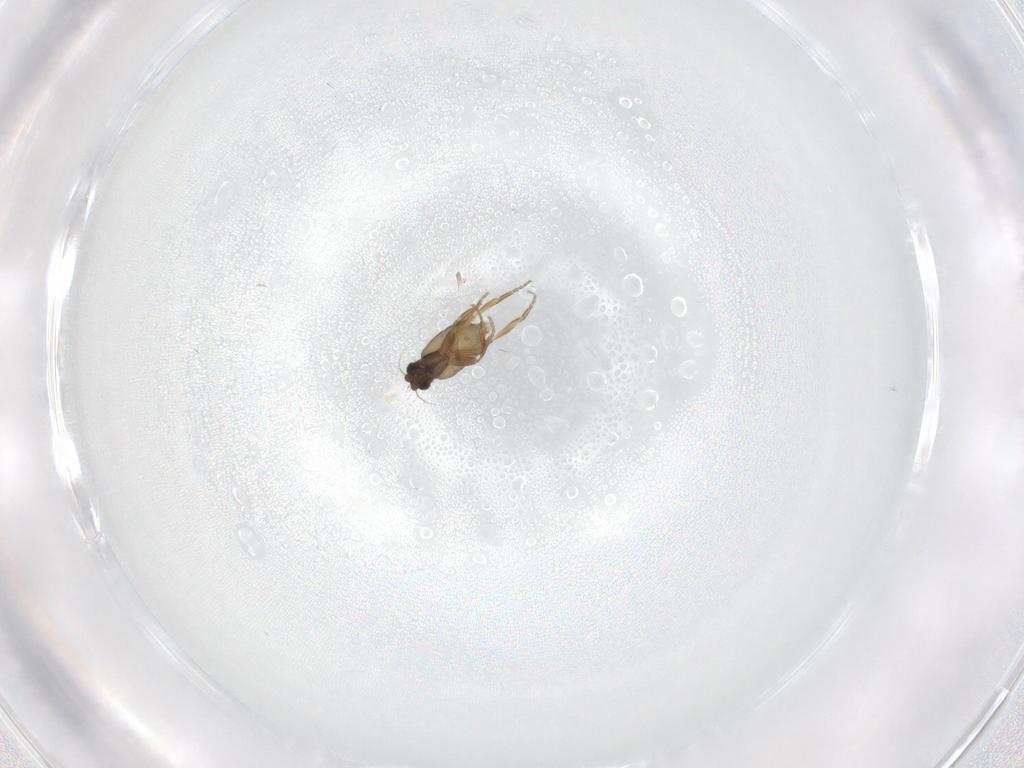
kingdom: Animalia
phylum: Arthropoda
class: Insecta
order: Diptera
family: Phoridae
